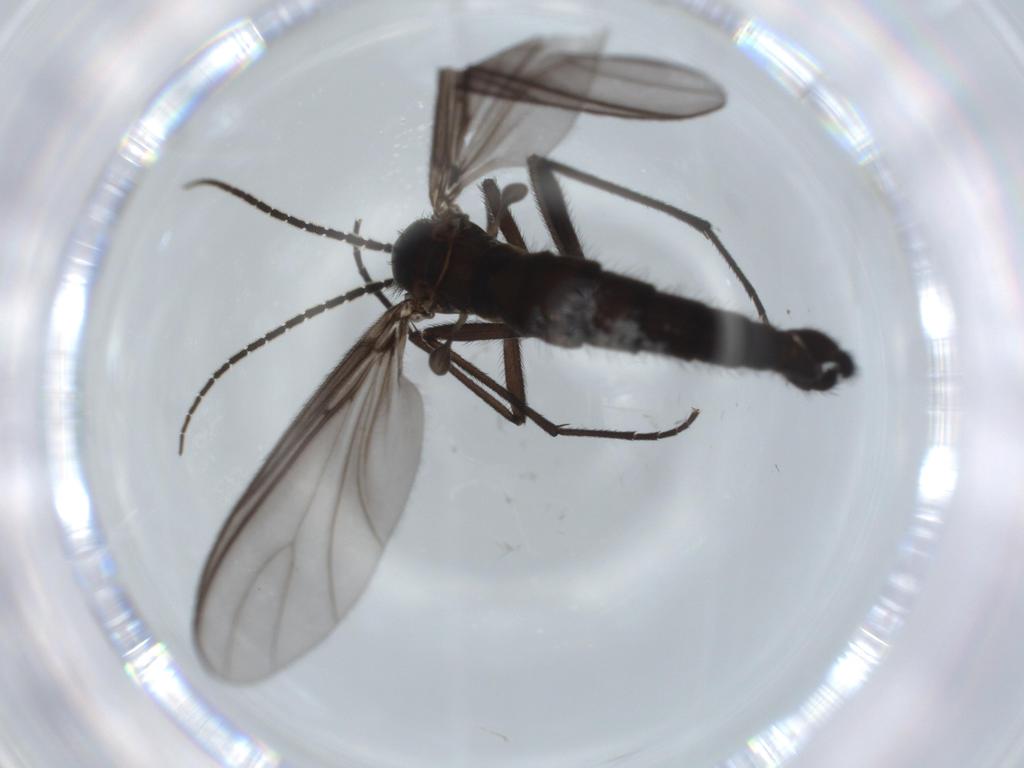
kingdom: Animalia
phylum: Arthropoda
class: Insecta
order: Diptera
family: Sciaridae
